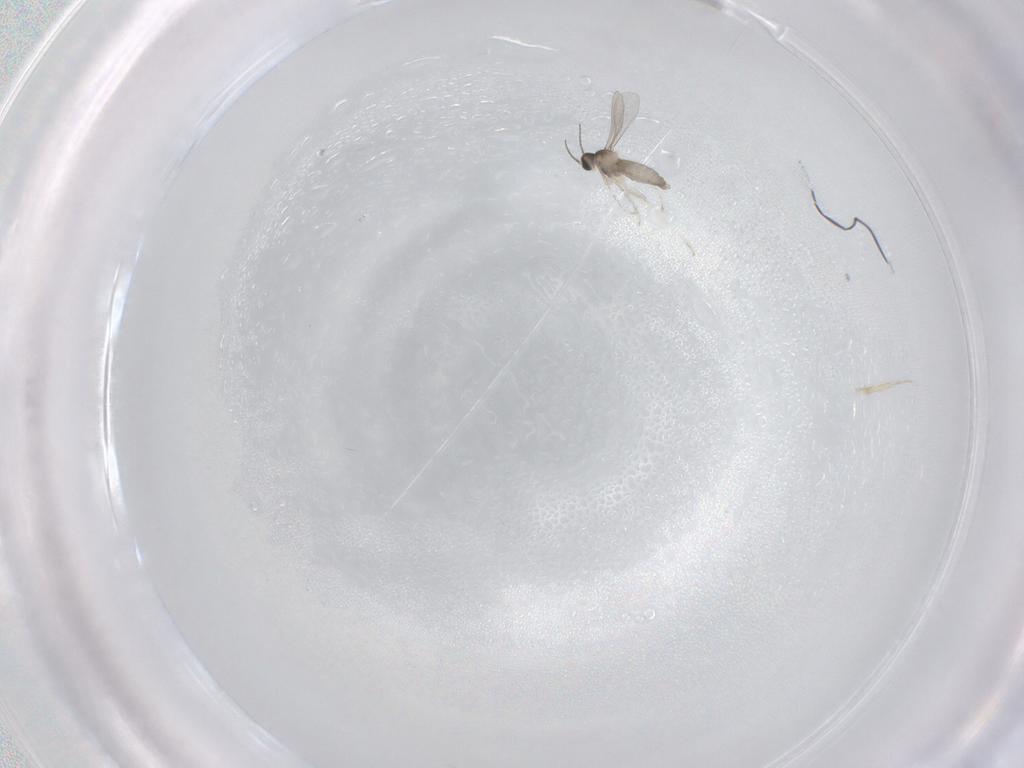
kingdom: Animalia
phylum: Arthropoda
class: Insecta
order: Diptera
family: Cecidomyiidae
